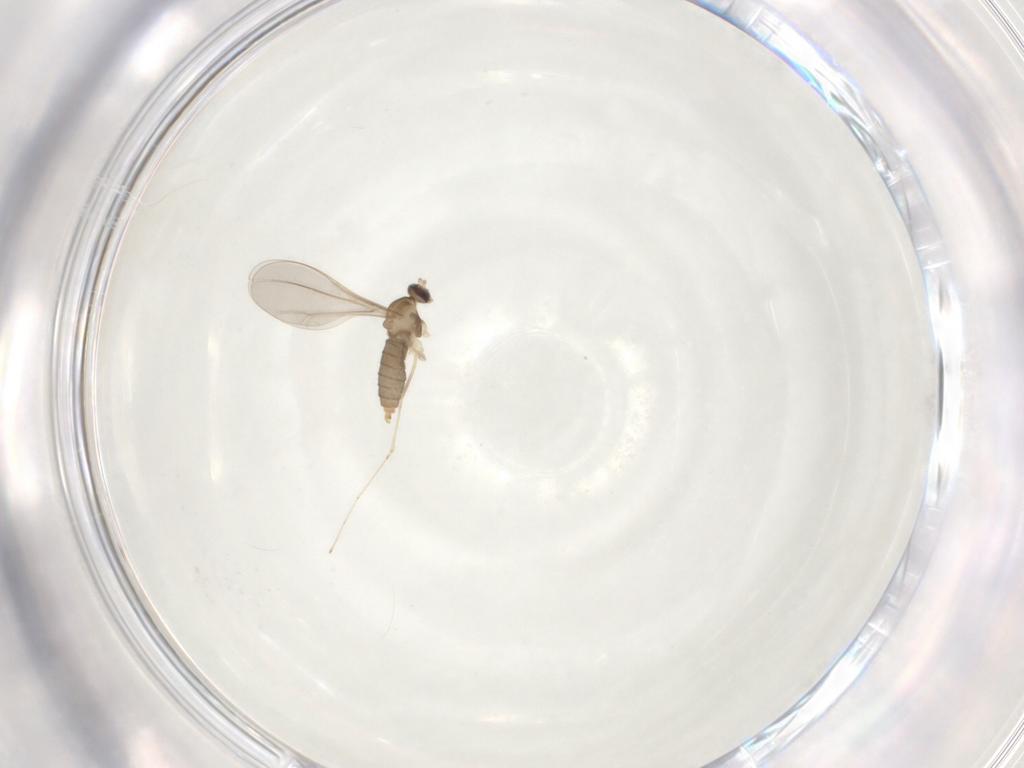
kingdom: Animalia
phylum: Arthropoda
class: Insecta
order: Diptera
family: Cecidomyiidae
